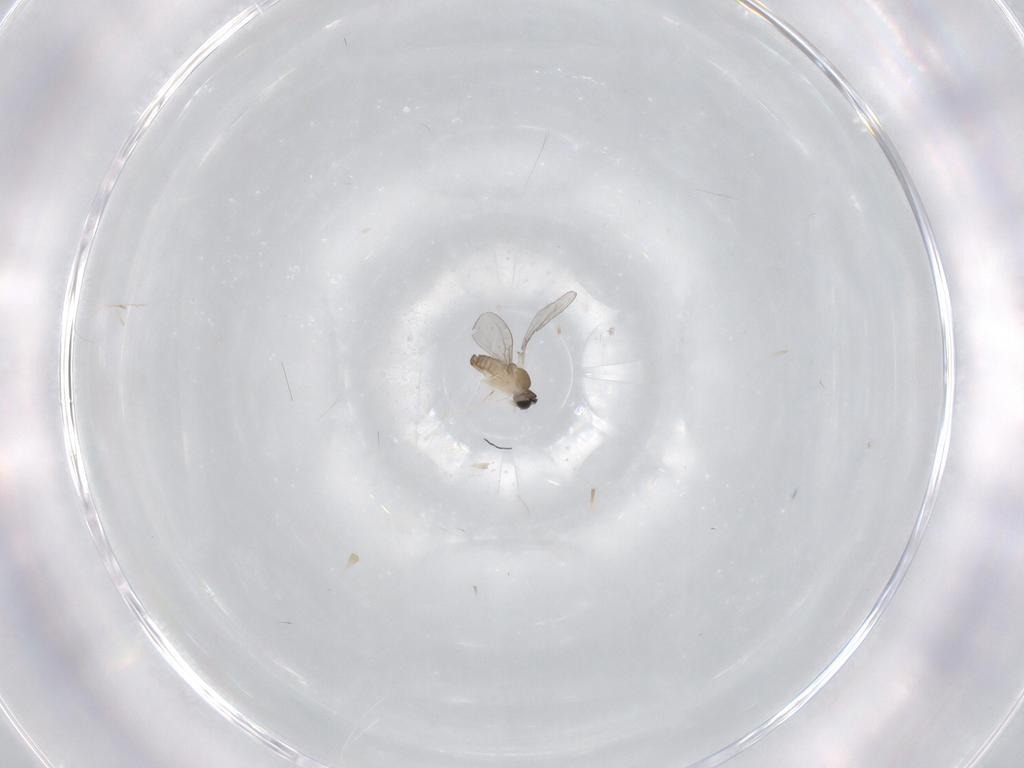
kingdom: Animalia
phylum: Arthropoda
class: Insecta
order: Diptera
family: Cecidomyiidae
